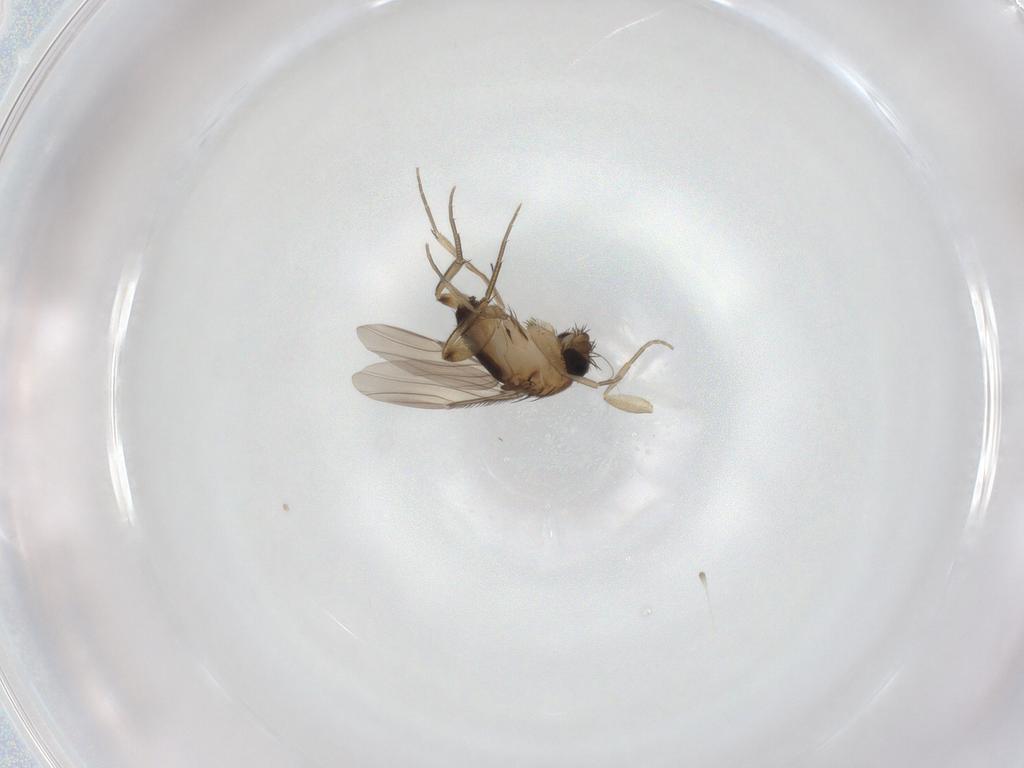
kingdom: Animalia
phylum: Arthropoda
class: Insecta
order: Diptera
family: Phoridae
